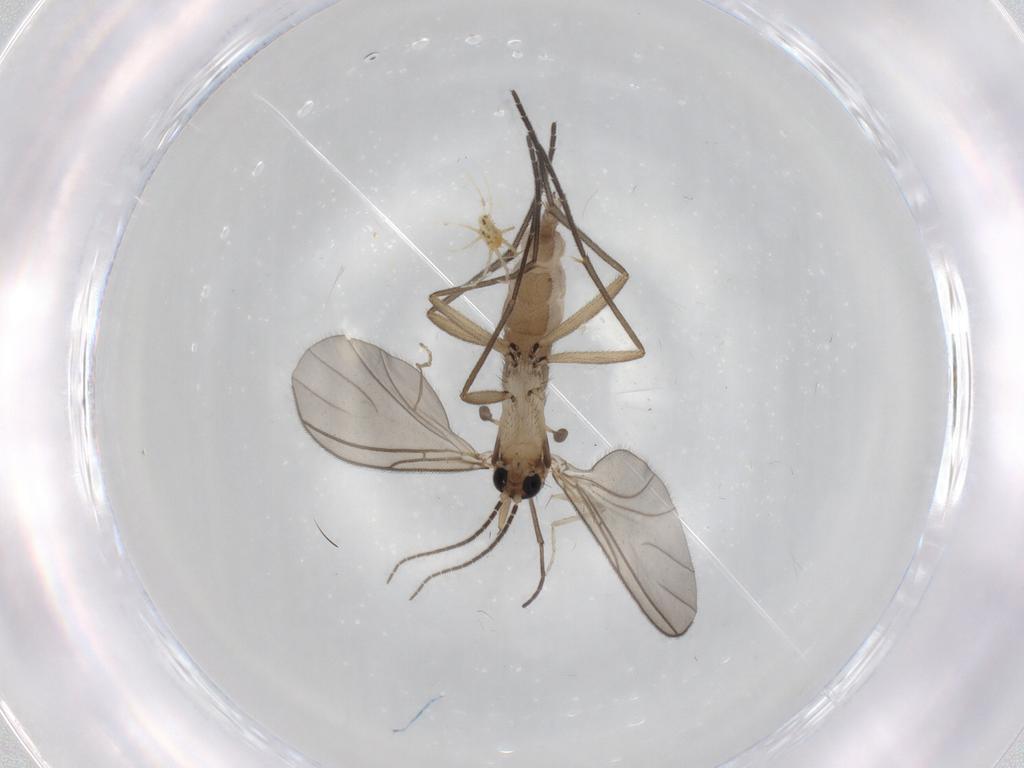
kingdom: Animalia
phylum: Arthropoda
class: Insecta
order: Diptera
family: Sciaridae
